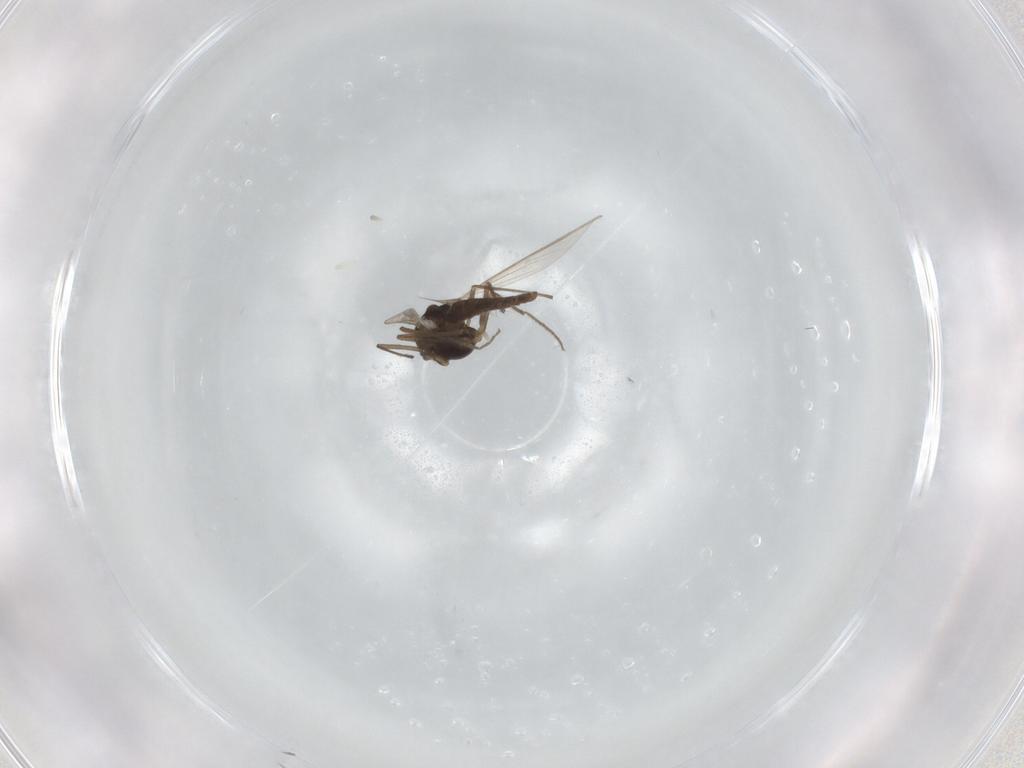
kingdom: Animalia
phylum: Arthropoda
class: Insecta
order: Diptera
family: Chironomidae
